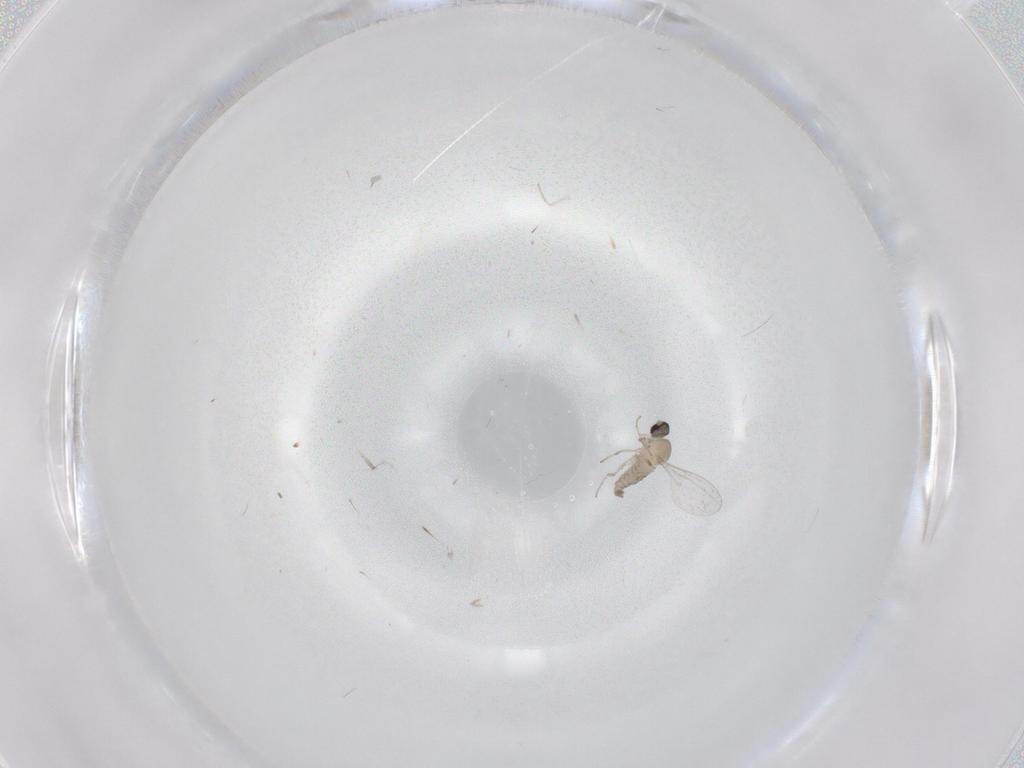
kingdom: Animalia
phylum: Arthropoda
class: Insecta
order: Diptera
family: Cecidomyiidae
